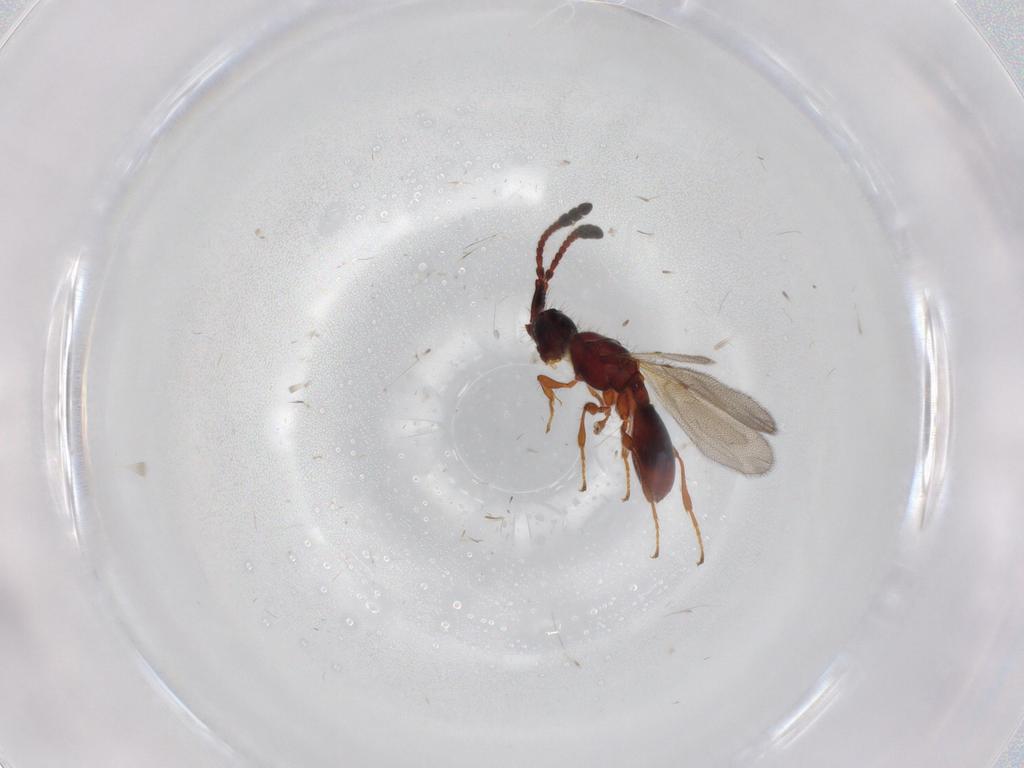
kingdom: Animalia
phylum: Arthropoda
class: Insecta
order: Hymenoptera
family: Diapriidae
